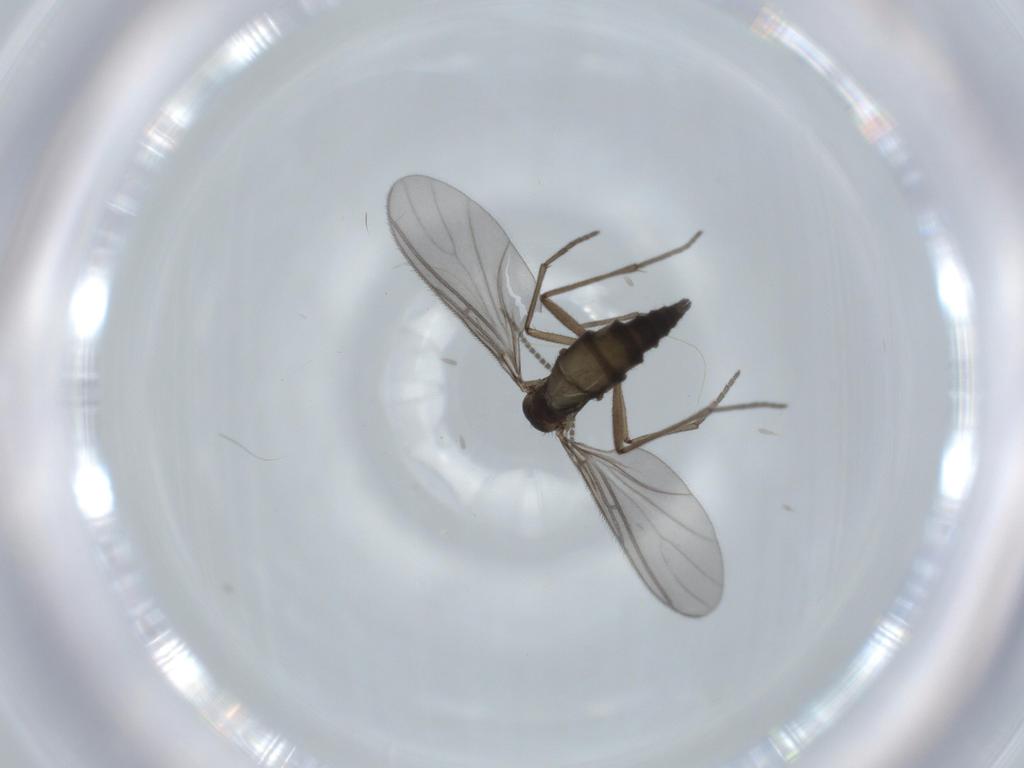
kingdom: Animalia
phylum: Arthropoda
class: Insecta
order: Diptera
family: Sciaridae
